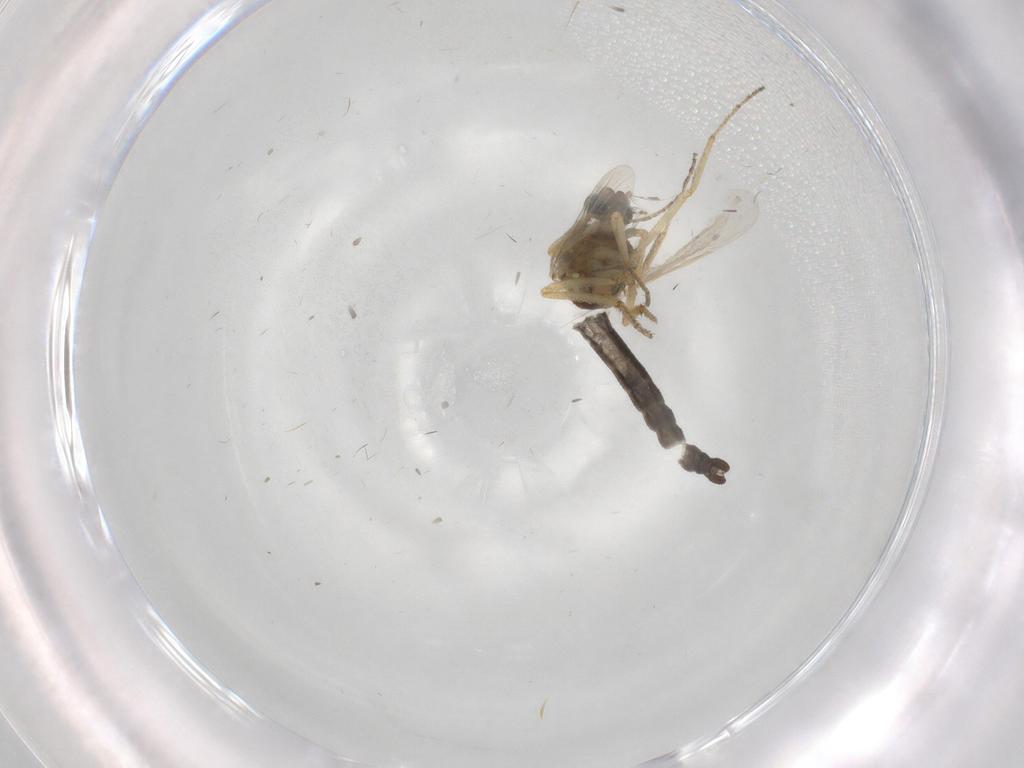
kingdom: Animalia
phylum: Arthropoda
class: Insecta
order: Diptera
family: Ceratopogonidae
